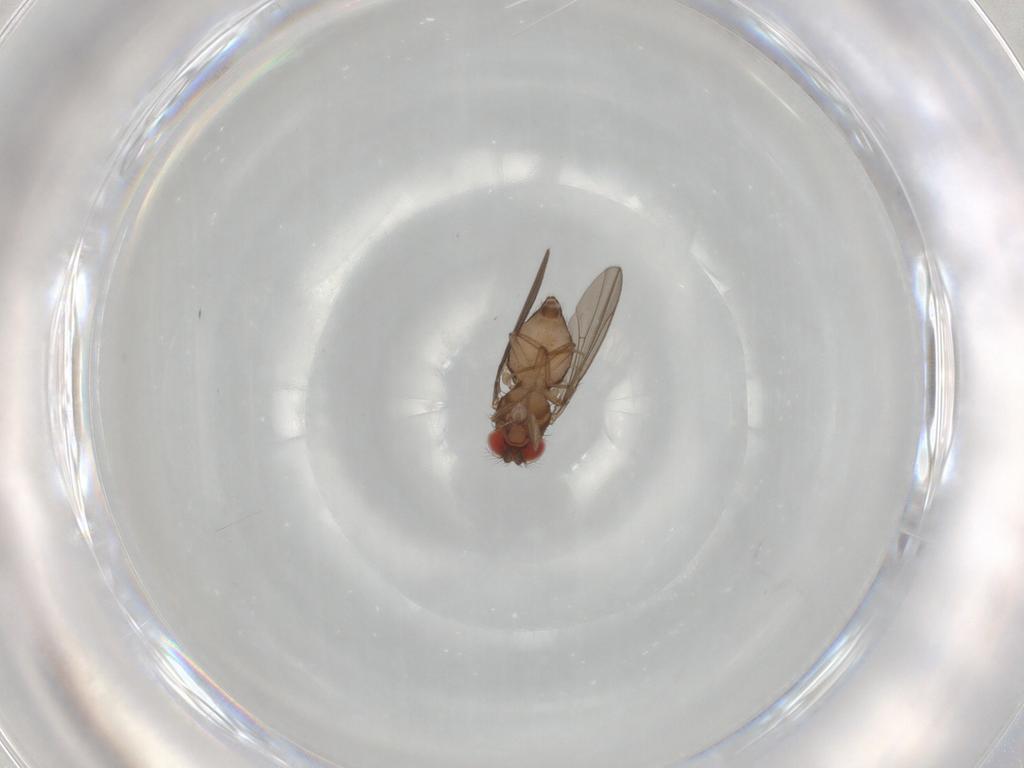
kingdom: Animalia
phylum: Arthropoda
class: Insecta
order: Diptera
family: Drosophilidae
